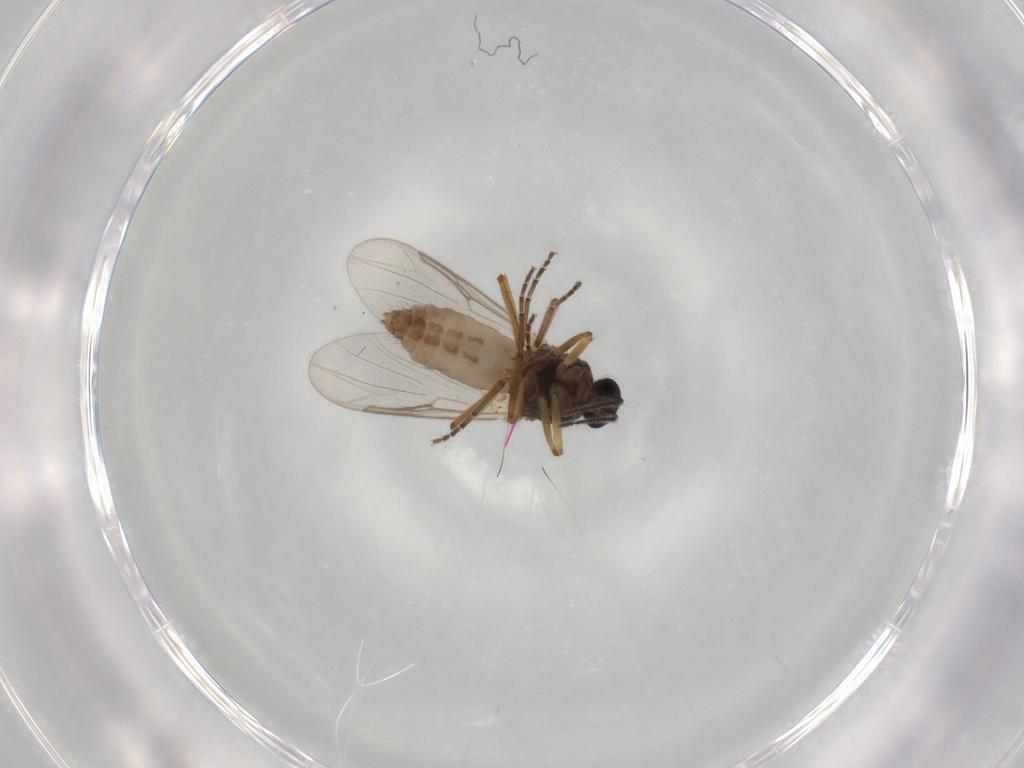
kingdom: Animalia
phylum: Arthropoda
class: Insecta
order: Diptera
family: Ceratopogonidae
